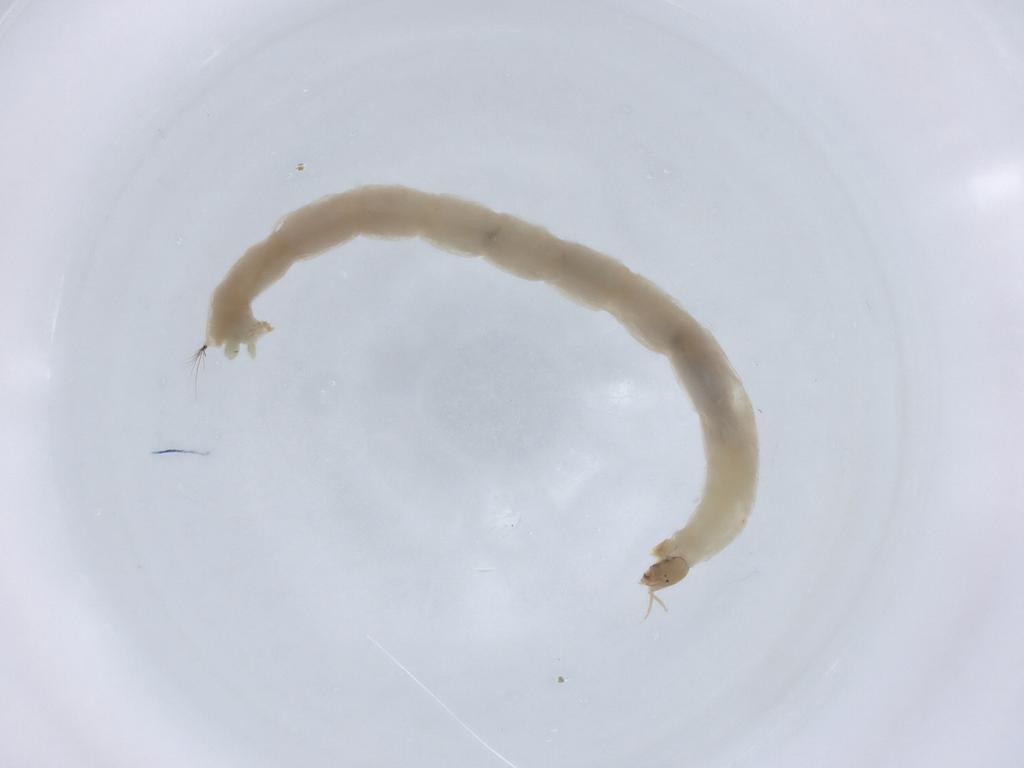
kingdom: Animalia
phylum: Arthropoda
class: Insecta
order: Diptera
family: Chironomidae
